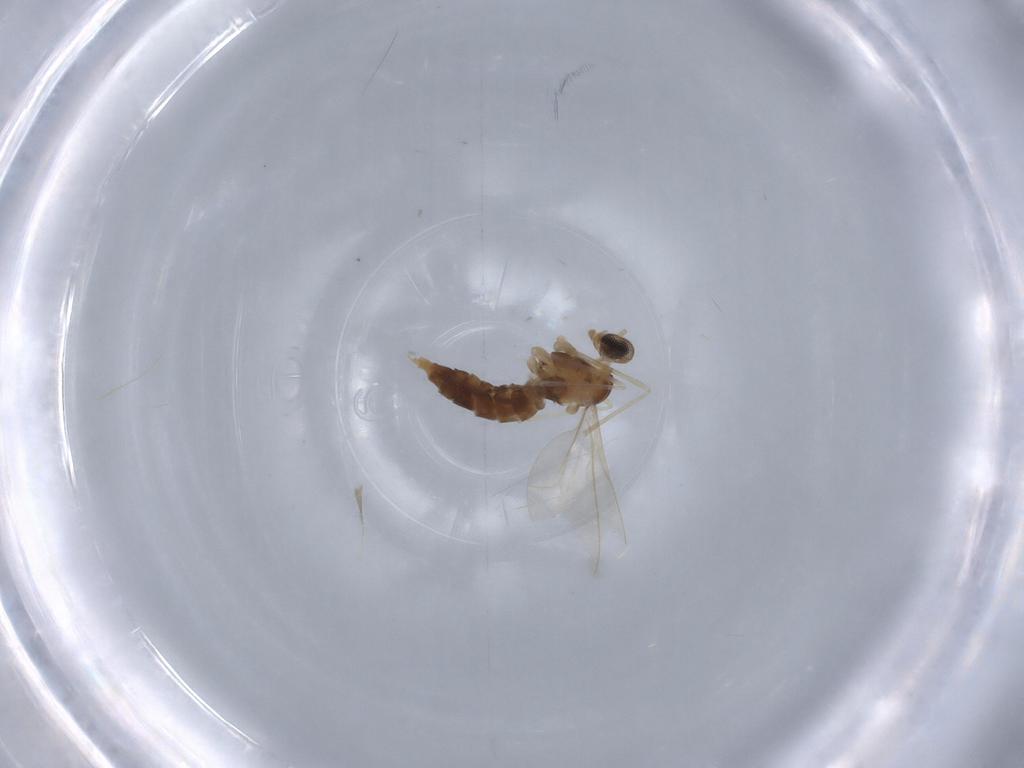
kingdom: Animalia
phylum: Arthropoda
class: Insecta
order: Diptera
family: Cecidomyiidae
